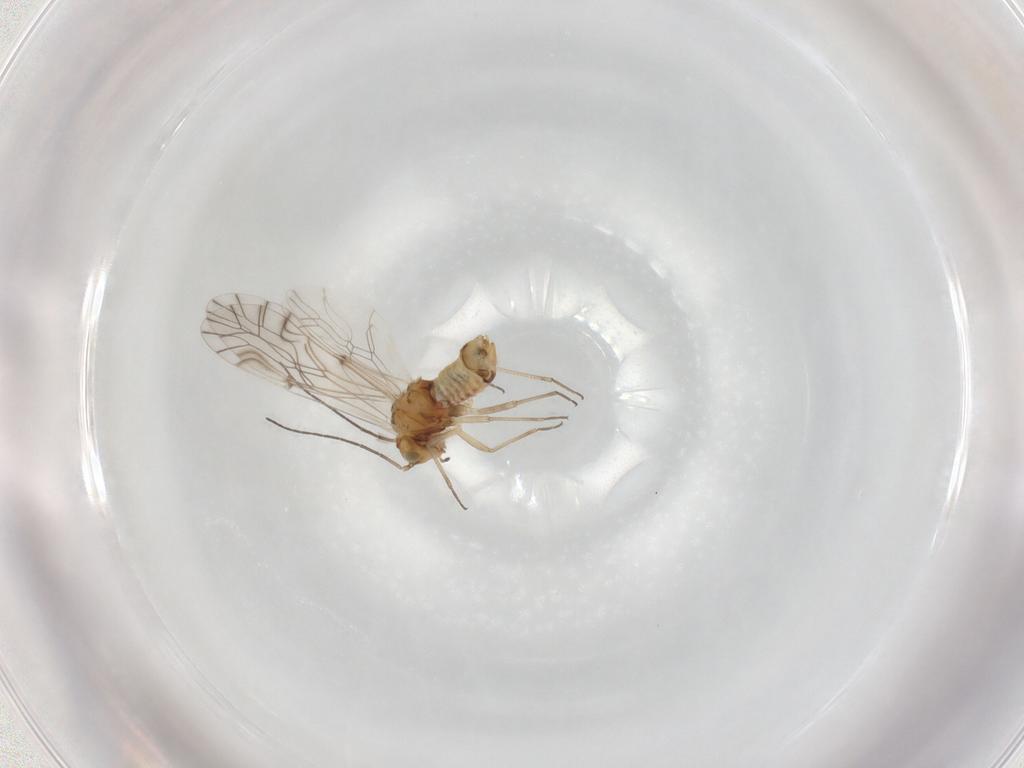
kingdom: Animalia
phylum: Arthropoda
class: Insecta
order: Psocodea
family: Lachesillidae
